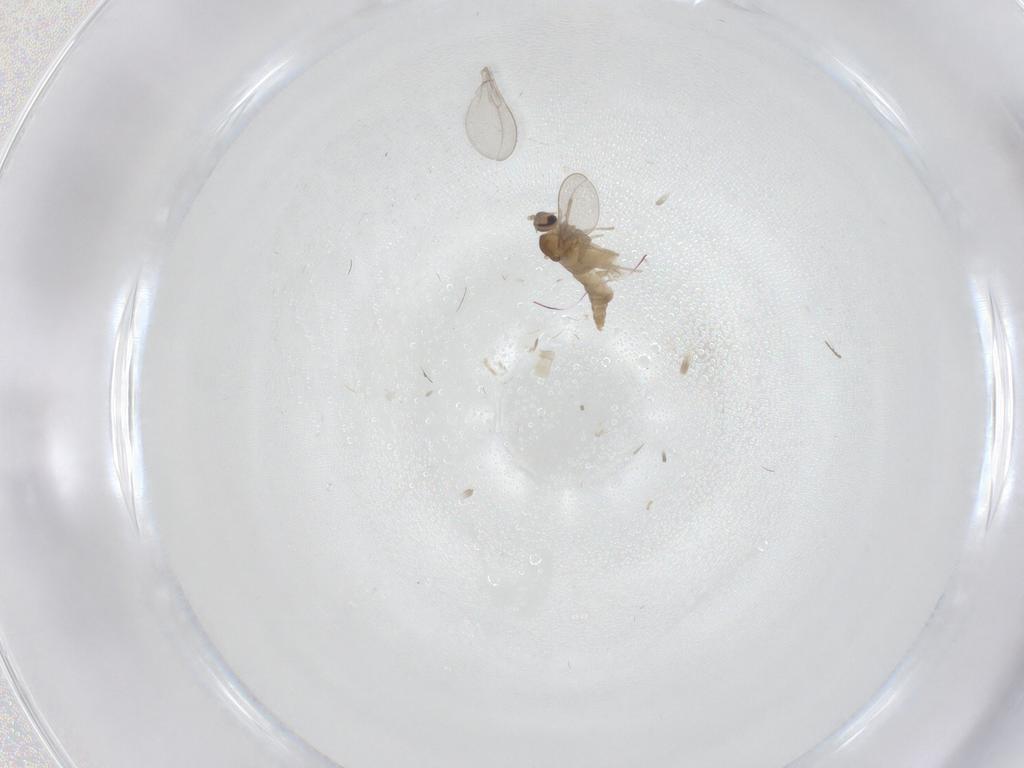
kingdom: Animalia
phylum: Arthropoda
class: Insecta
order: Diptera
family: Cecidomyiidae
